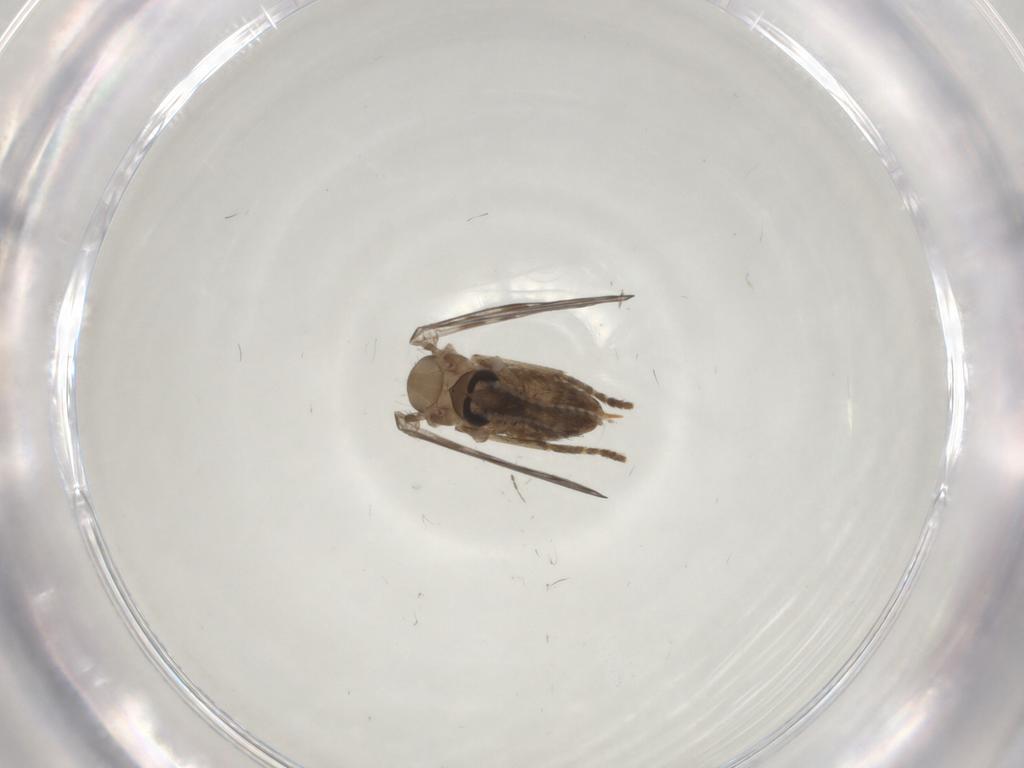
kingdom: Animalia
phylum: Arthropoda
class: Insecta
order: Diptera
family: Psychodidae
